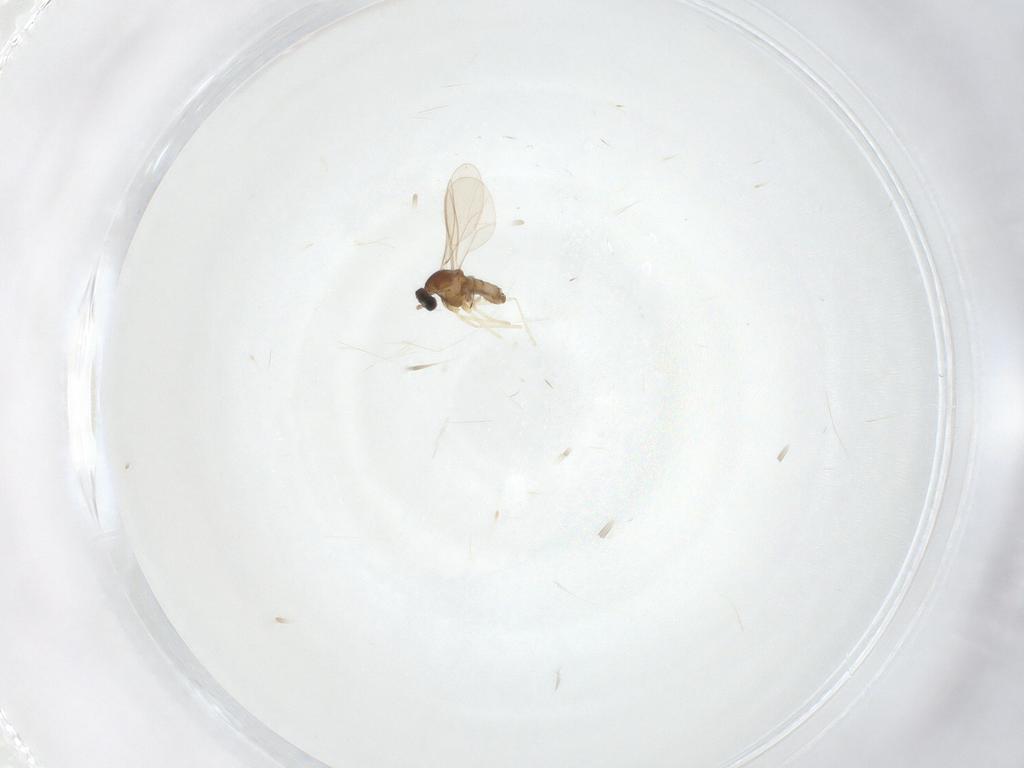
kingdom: Animalia
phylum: Arthropoda
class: Insecta
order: Diptera
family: Cecidomyiidae
